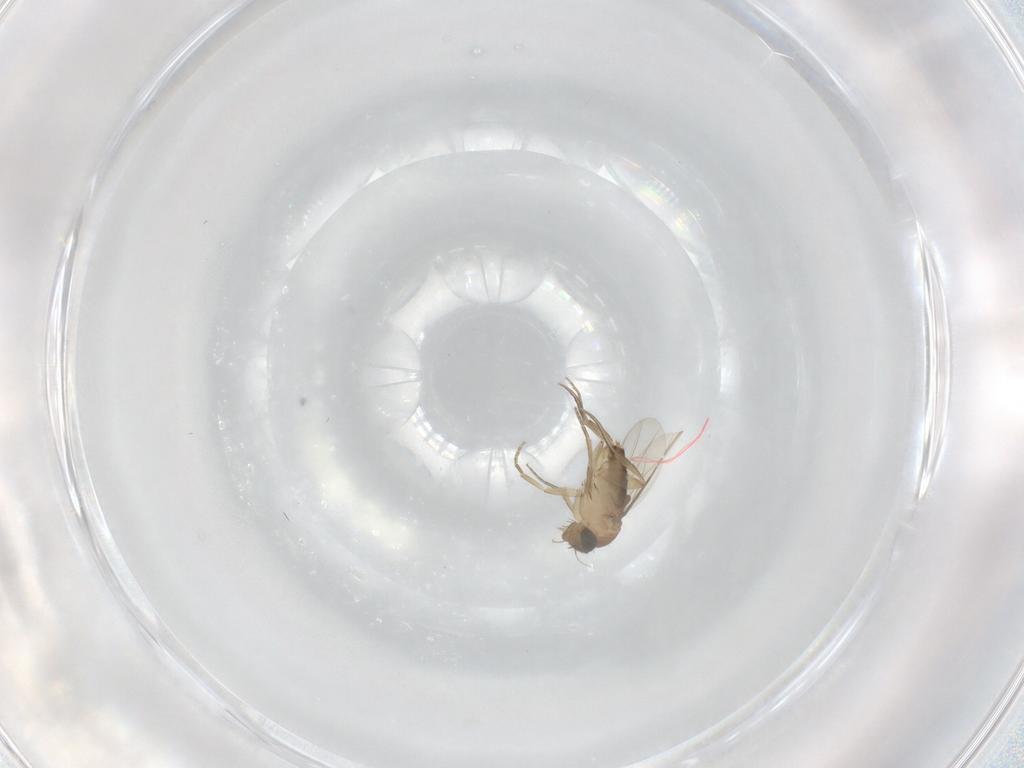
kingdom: Animalia
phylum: Arthropoda
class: Insecta
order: Diptera
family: Phoridae
